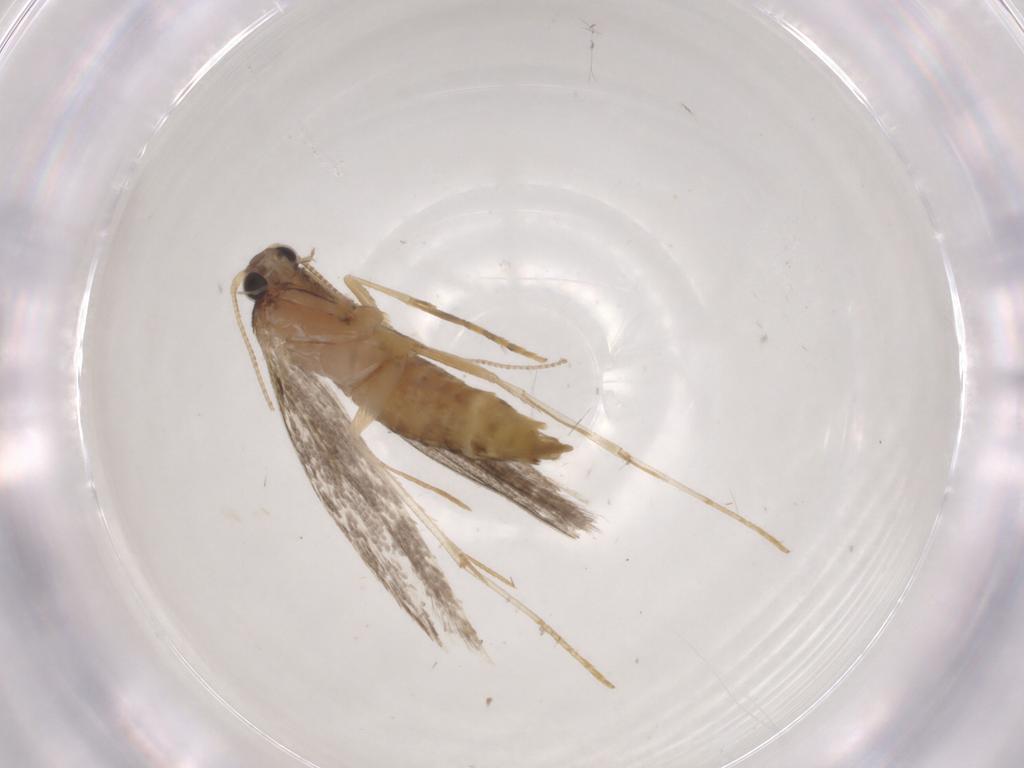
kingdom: Animalia
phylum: Arthropoda
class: Insecta
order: Lepidoptera
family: Tineidae
